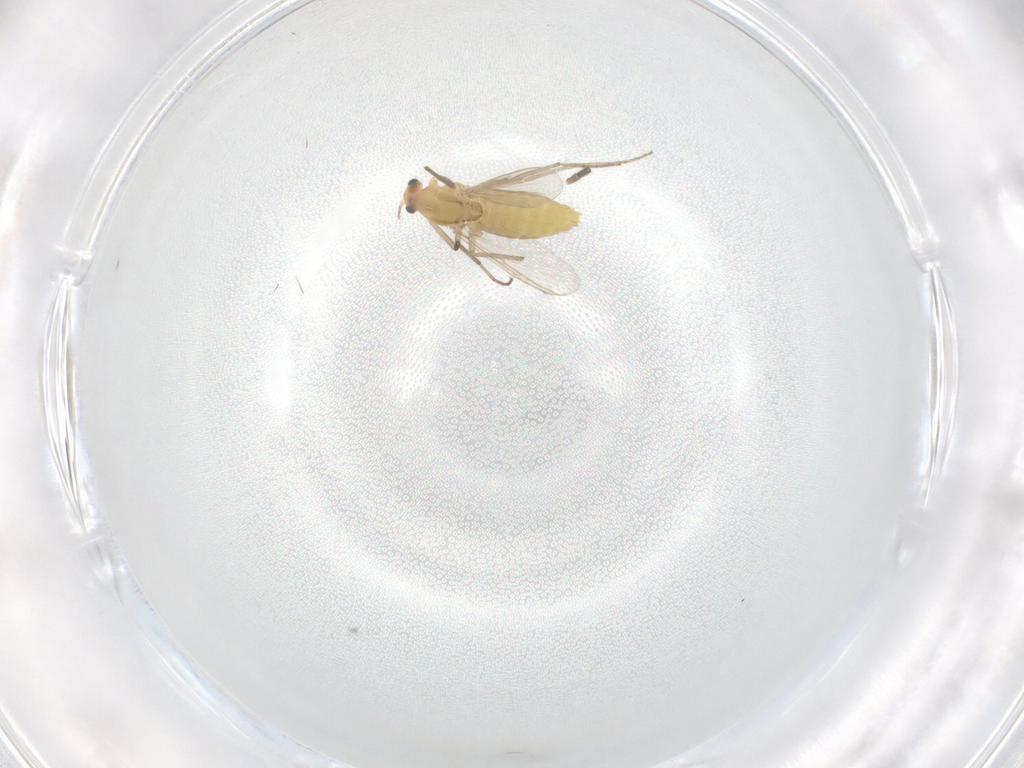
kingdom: Animalia
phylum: Arthropoda
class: Insecta
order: Diptera
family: Chironomidae
